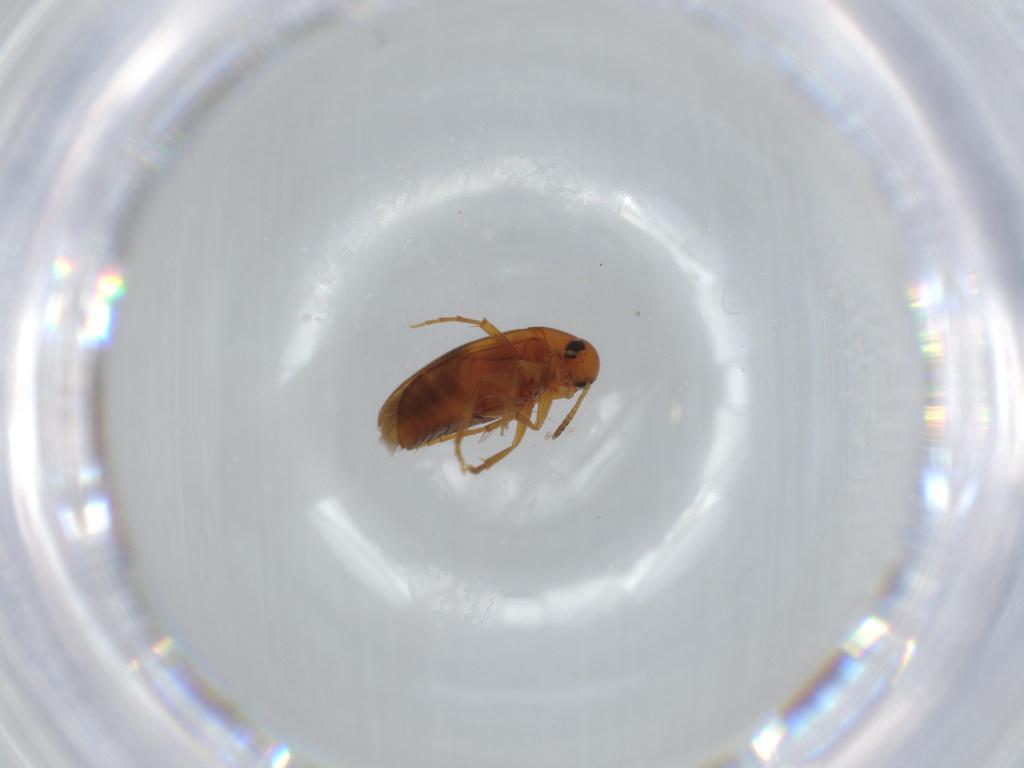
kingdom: Animalia
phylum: Arthropoda
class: Insecta
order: Coleoptera
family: Scraptiidae
